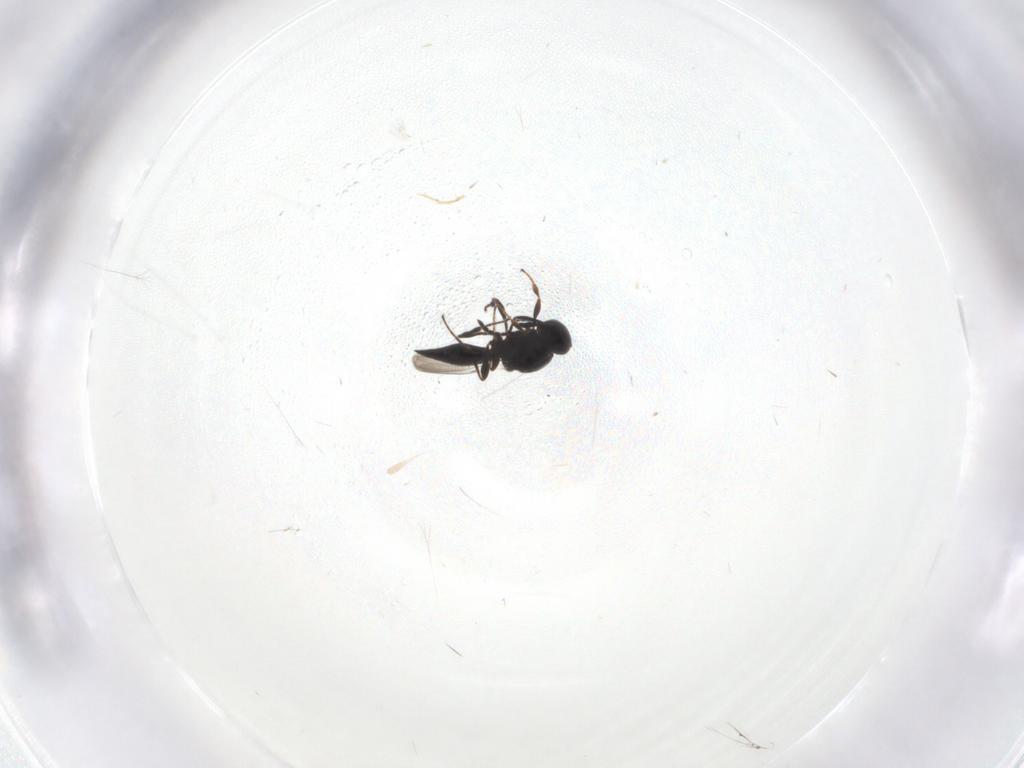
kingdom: Animalia
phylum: Arthropoda
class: Insecta
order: Hymenoptera
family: Platygastridae
